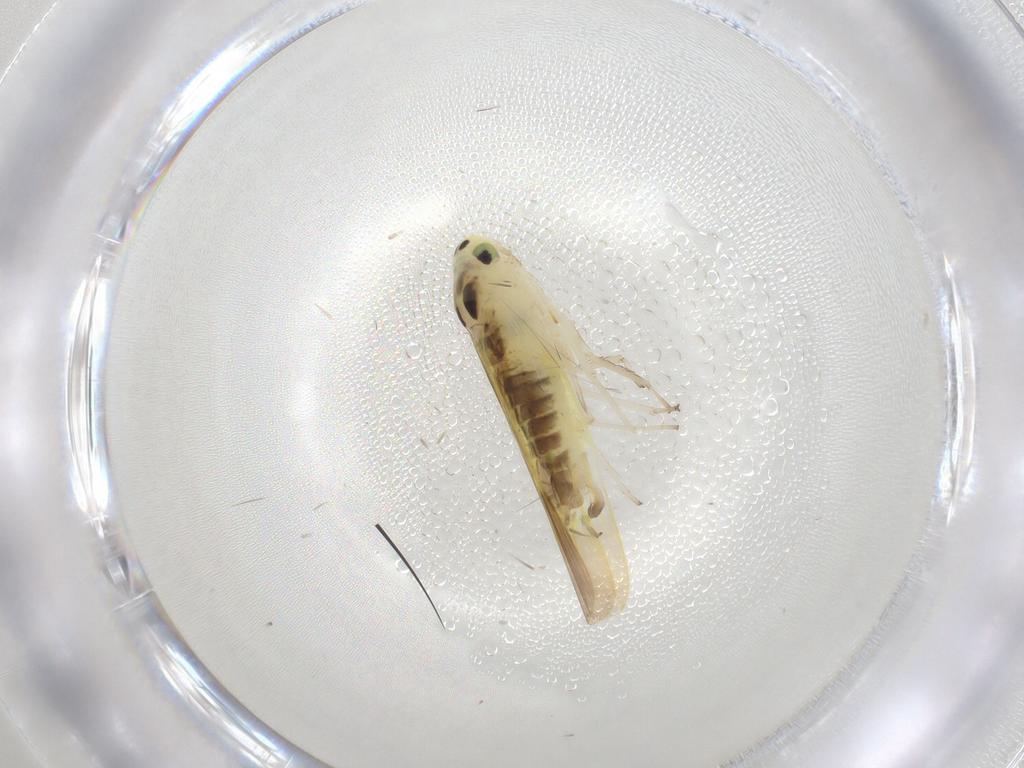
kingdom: Animalia
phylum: Arthropoda
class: Insecta
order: Hemiptera
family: Cicadellidae
